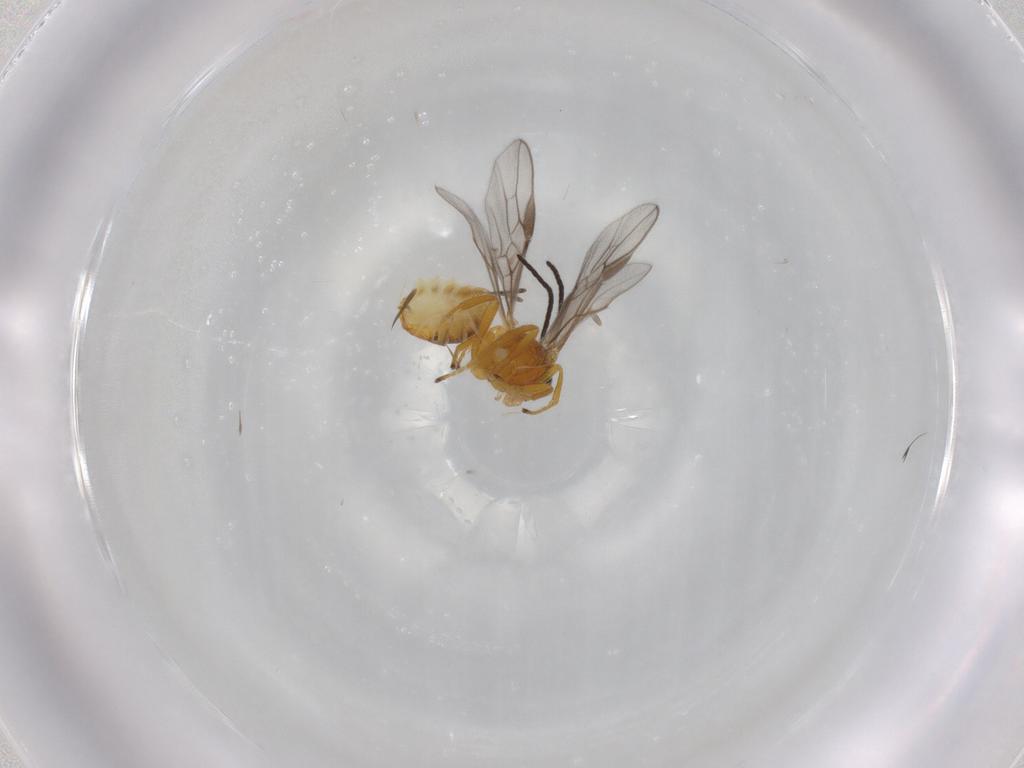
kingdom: Animalia
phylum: Arthropoda
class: Insecta
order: Hymenoptera
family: Braconidae
